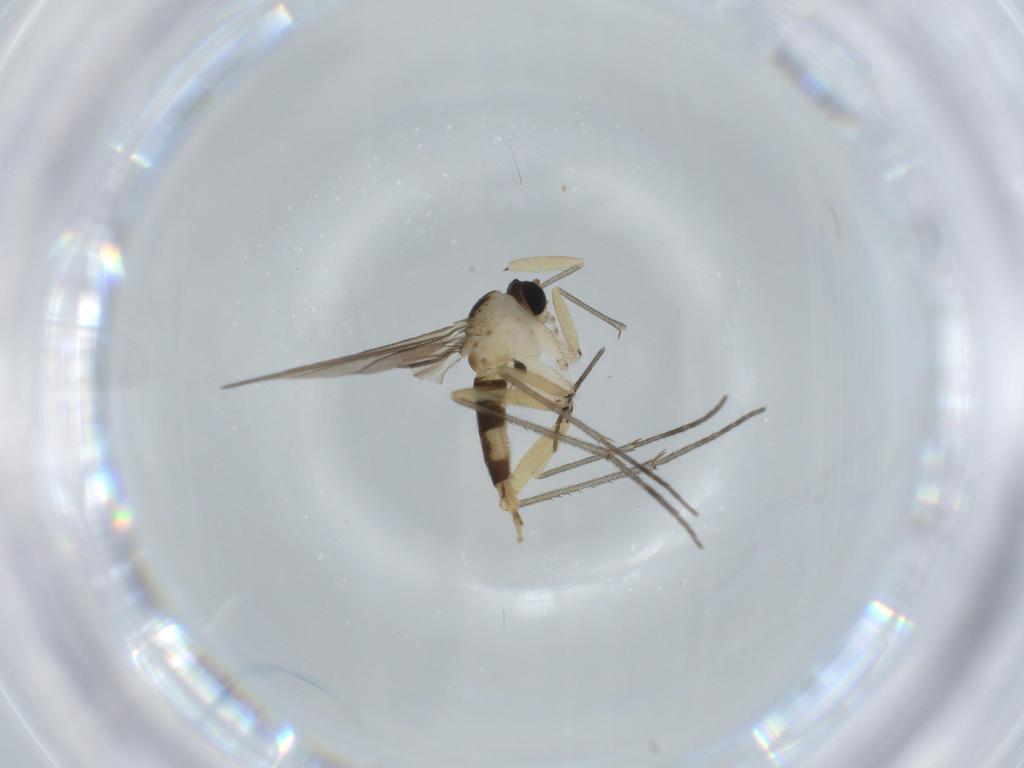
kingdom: Animalia
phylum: Arthropoda
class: Insecta
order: Diptera
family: Sciaridae
